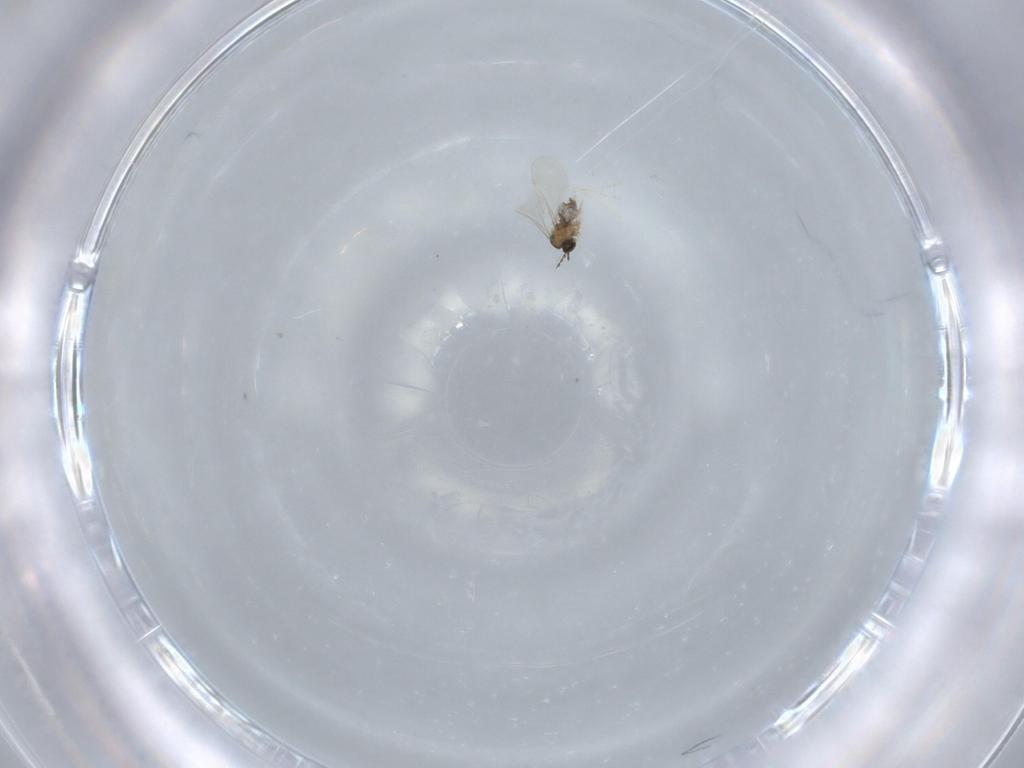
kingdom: Animalia
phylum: Arthropoda
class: Insecta
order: Diptera
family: Cecidomyiidae
